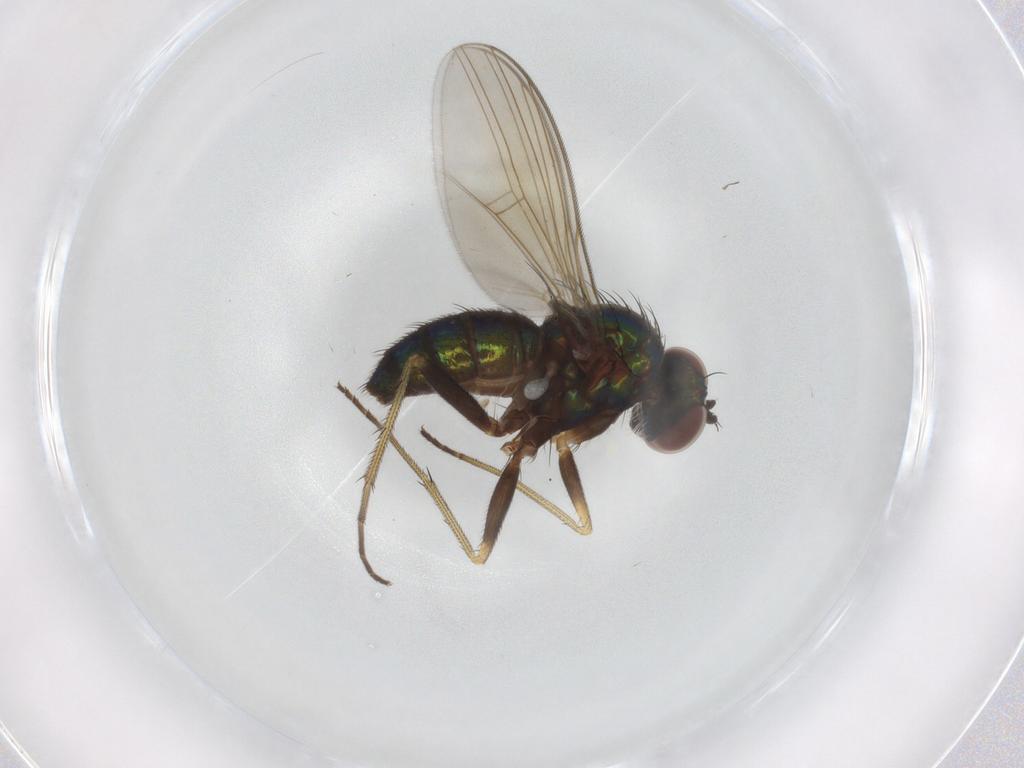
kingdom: Animalia
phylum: Arthropoda
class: Insecta
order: Diptera
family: Dolichopodidae
